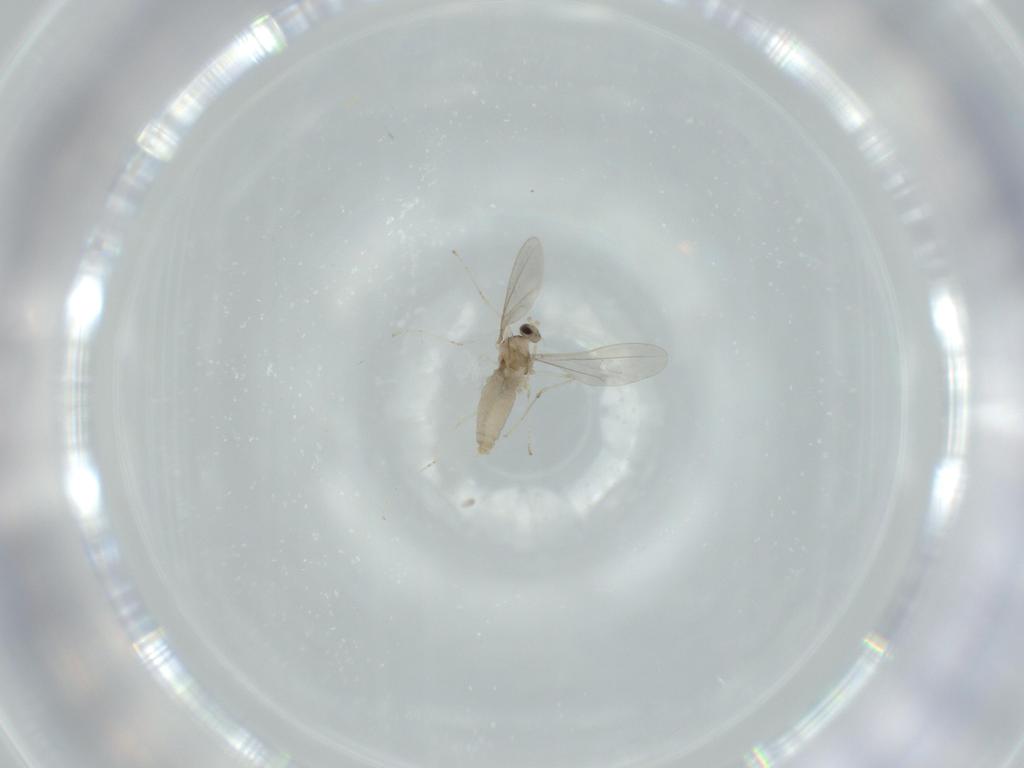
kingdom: Animalia
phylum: Arthropoda
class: Insecta
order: Diptera
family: Cecidomyiidae
